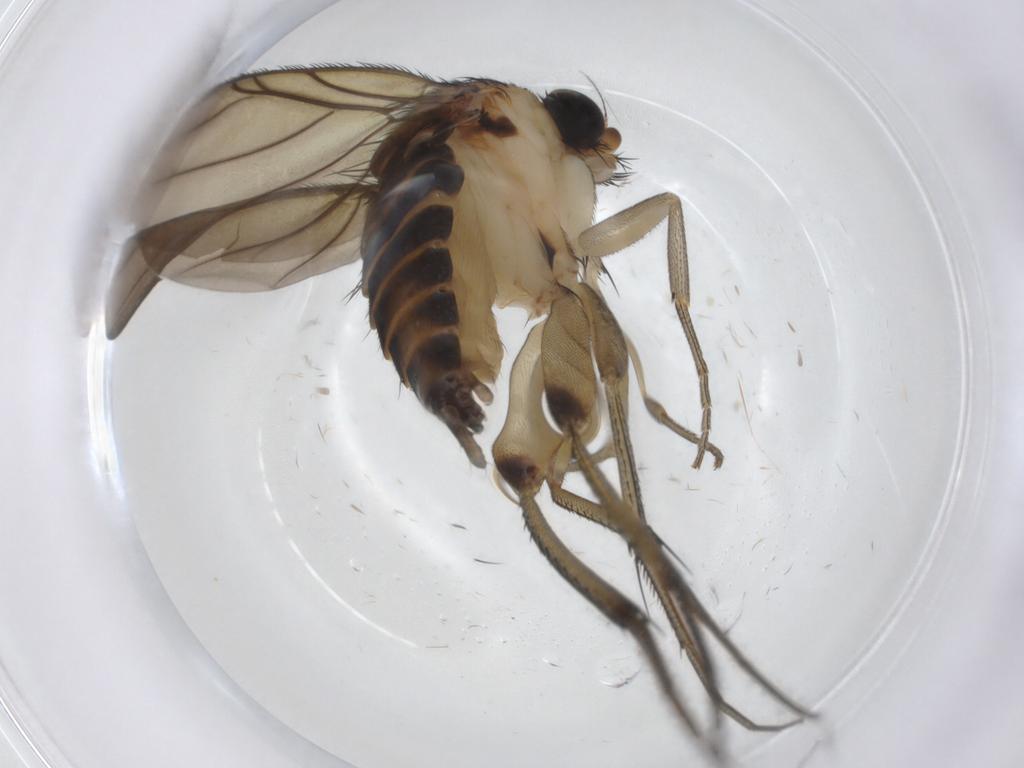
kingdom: Animalia
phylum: Arthropoda
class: Insecta
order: Diptera
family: Phoridae
